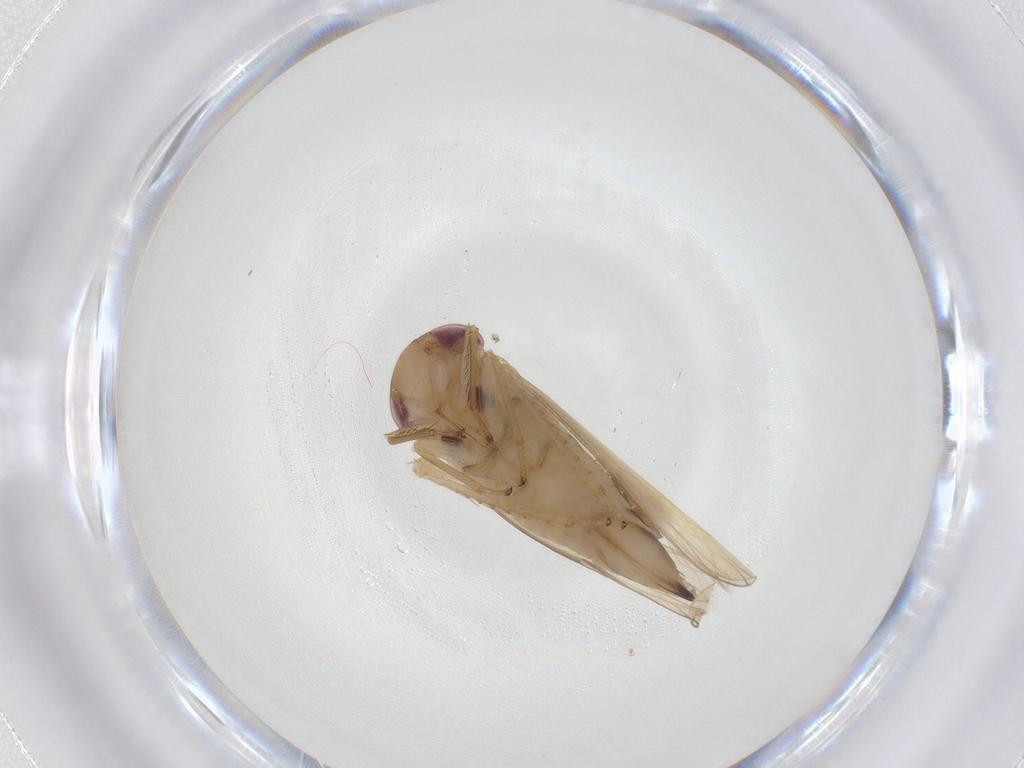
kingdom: Animalia
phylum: Arthropoda
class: Insecta
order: Hemiptera
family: Cicadellidae
